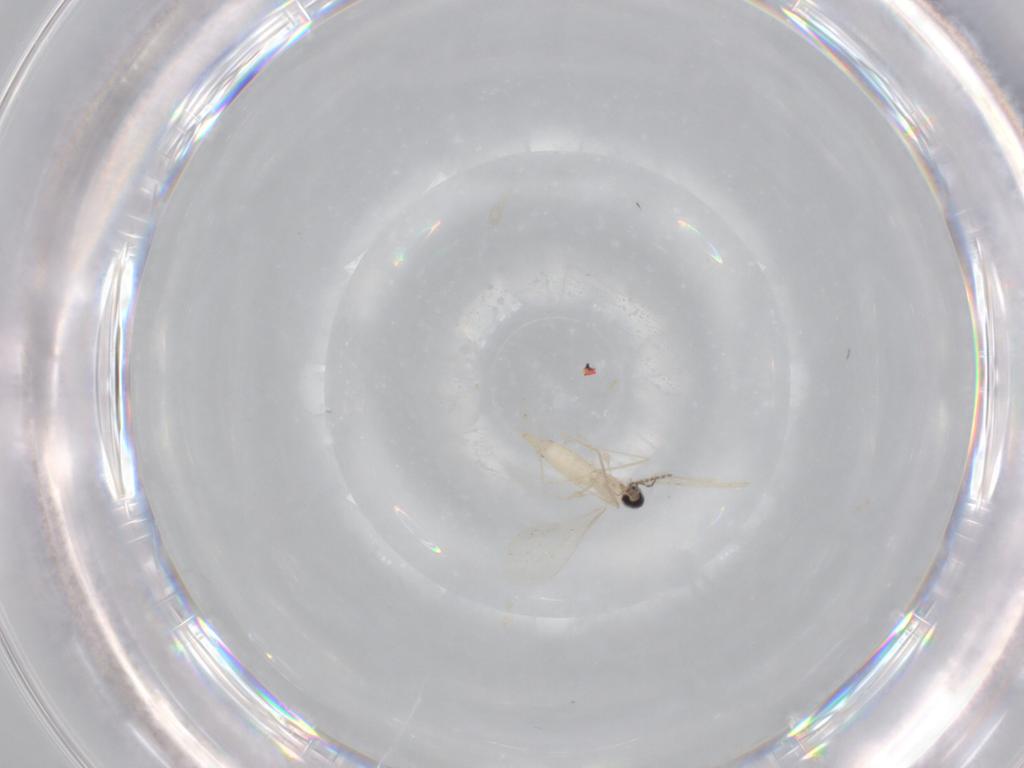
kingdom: Animalia
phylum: Arthropoda
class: Insecta
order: Diptera
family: Cecidomyiidae
